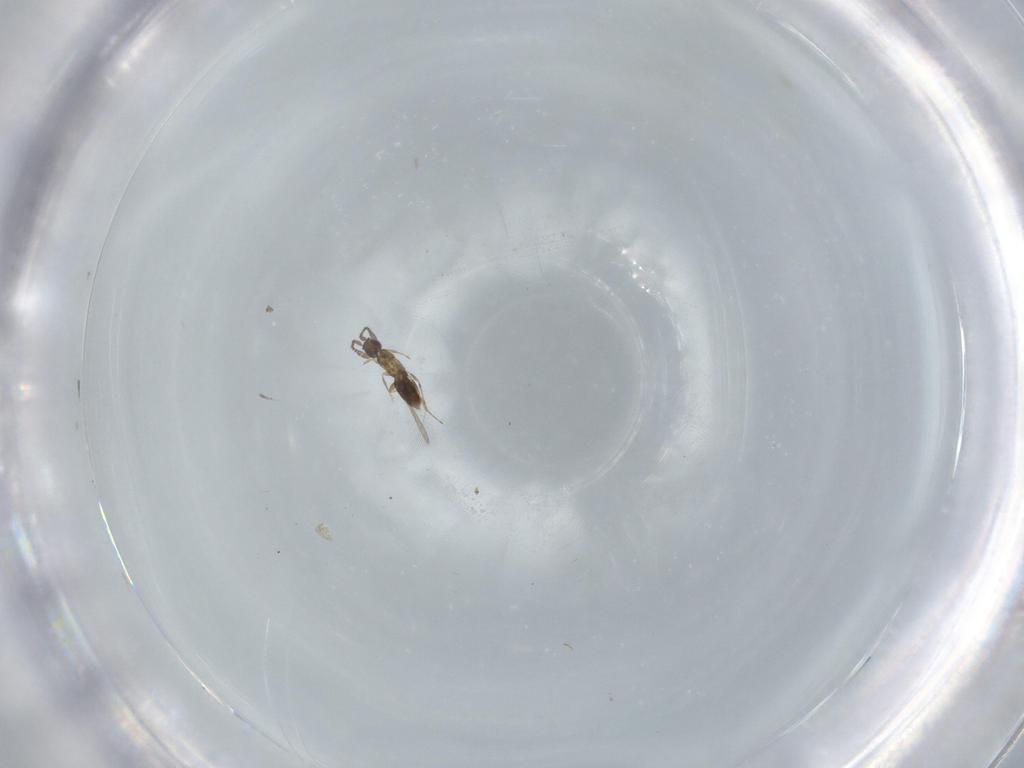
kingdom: Animalia
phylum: Arthropoda
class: Insecta
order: Hymenoptera
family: Mymaridae
